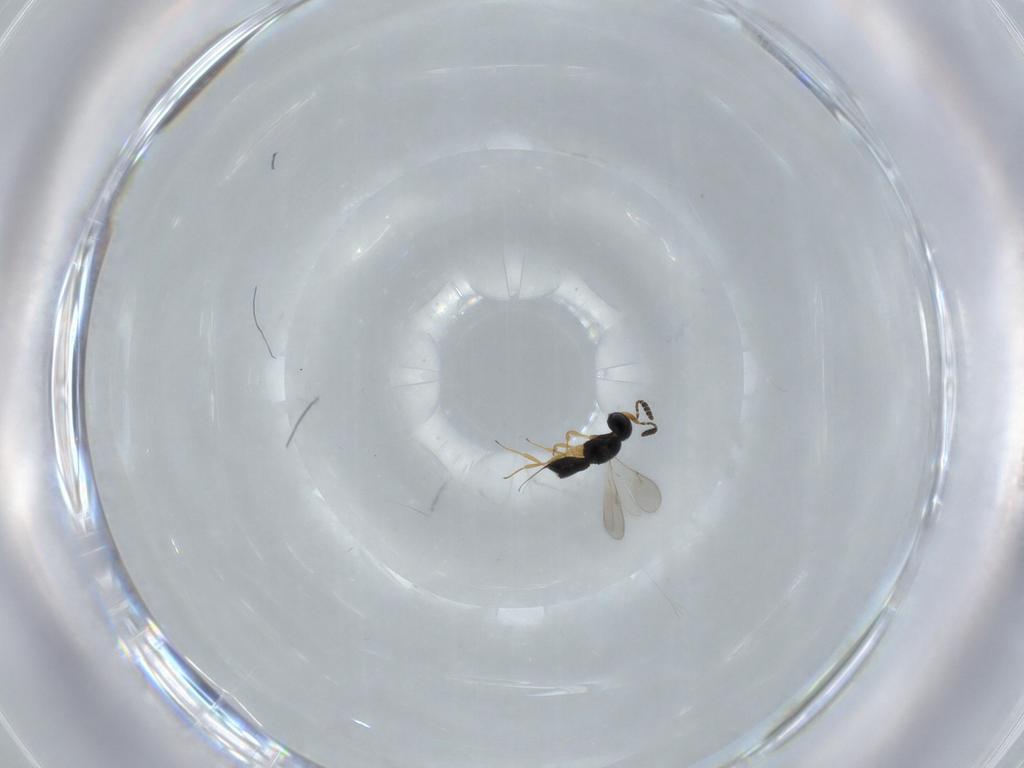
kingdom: Animalia
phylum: Arthropoda
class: Insecta
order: Hymenoptera
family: Scelionidae
